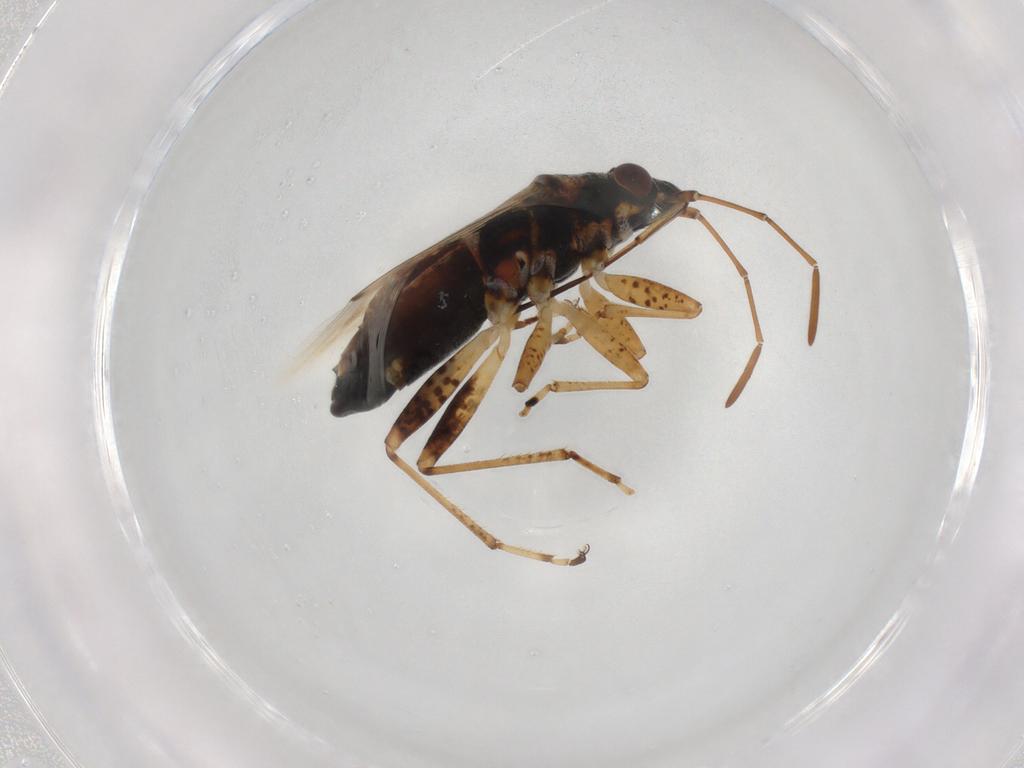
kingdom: Animalia
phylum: Arthropoda
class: Insecta
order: Hemiptera
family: Lygaeidae
